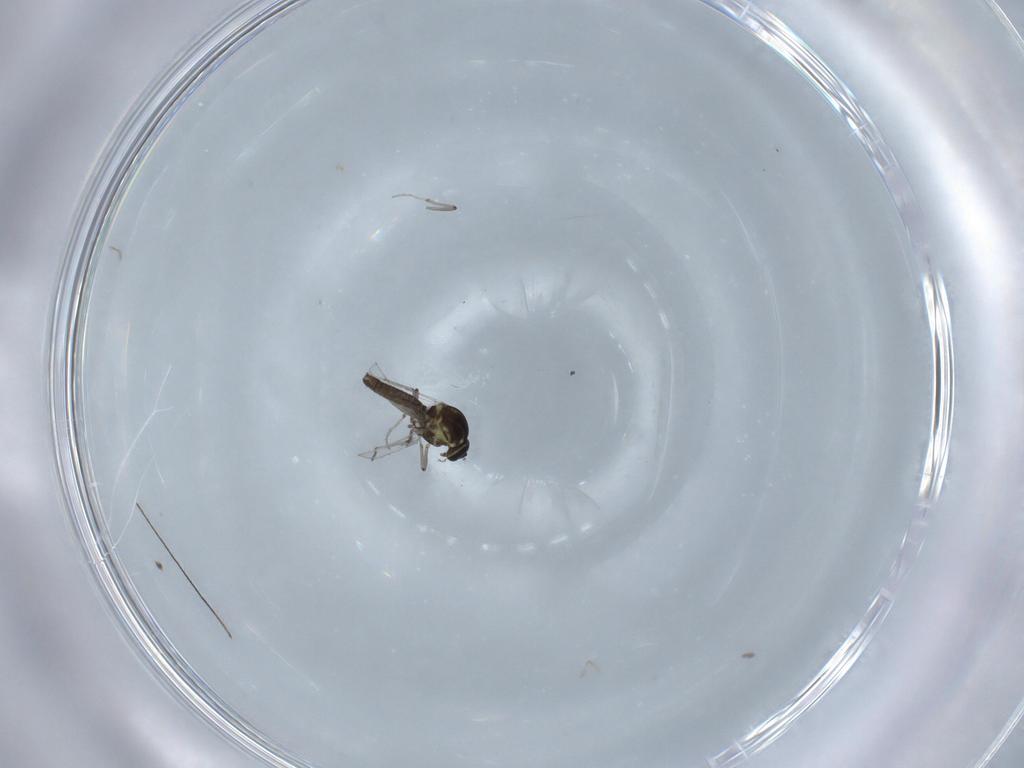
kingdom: Animalia
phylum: Arthropoda
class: Insecta
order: Diptera
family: Ceratopogonidae
